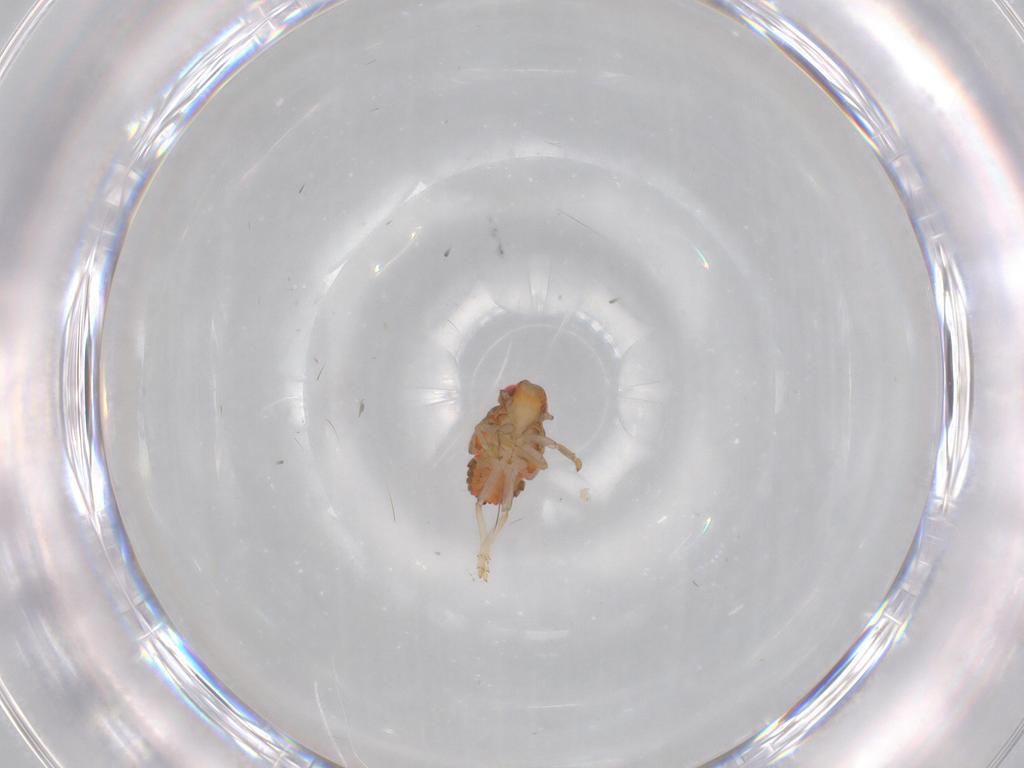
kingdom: Animalia
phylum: Arthropoda
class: Insecta
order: Hemiptera
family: Issidae
